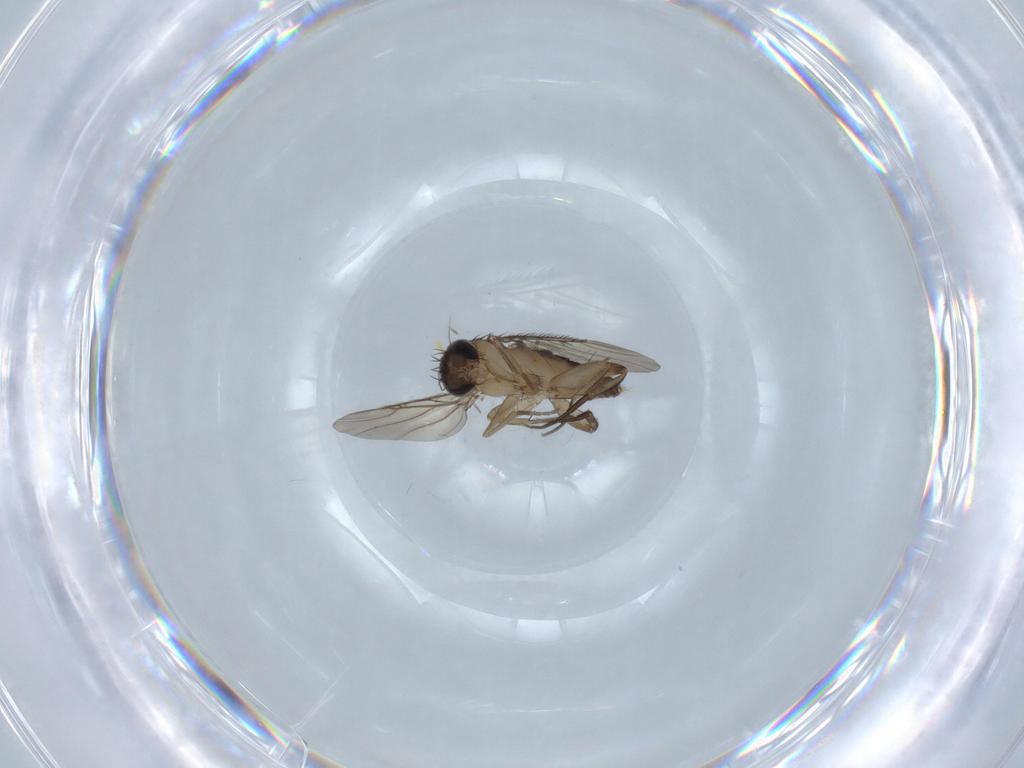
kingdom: Animalia
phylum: Arthropoda
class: Insecta
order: Diptera
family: Phoridae
